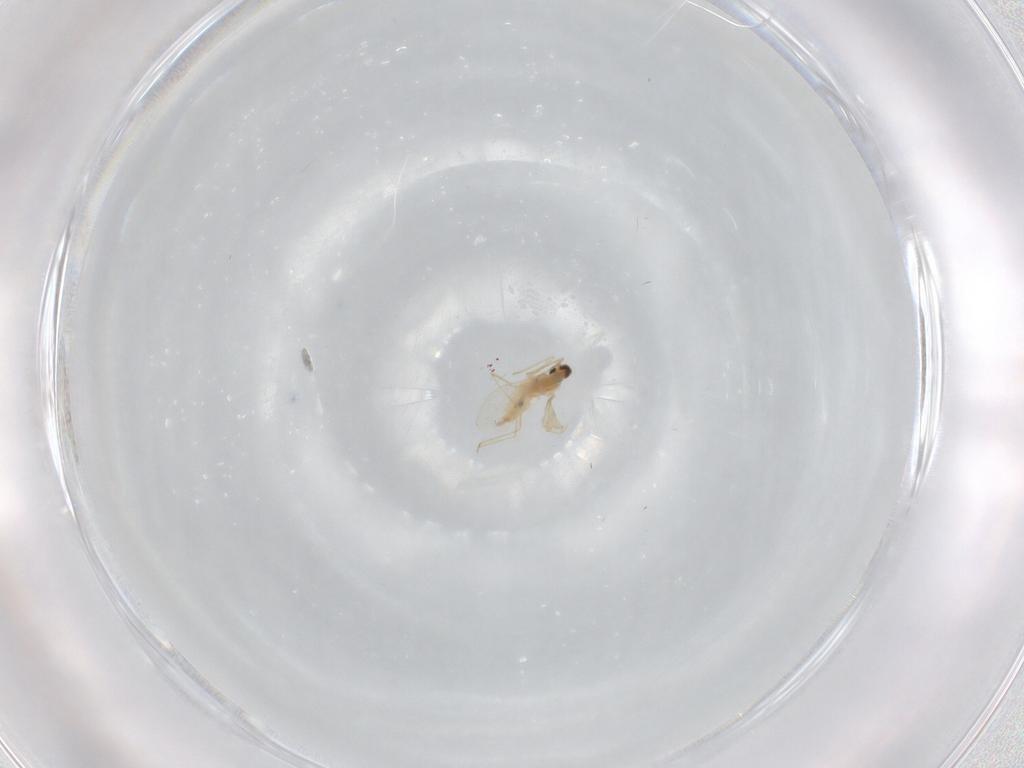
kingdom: Animalia
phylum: Arthropoda
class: Insecta
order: Diptera
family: Cecidomyiidae
